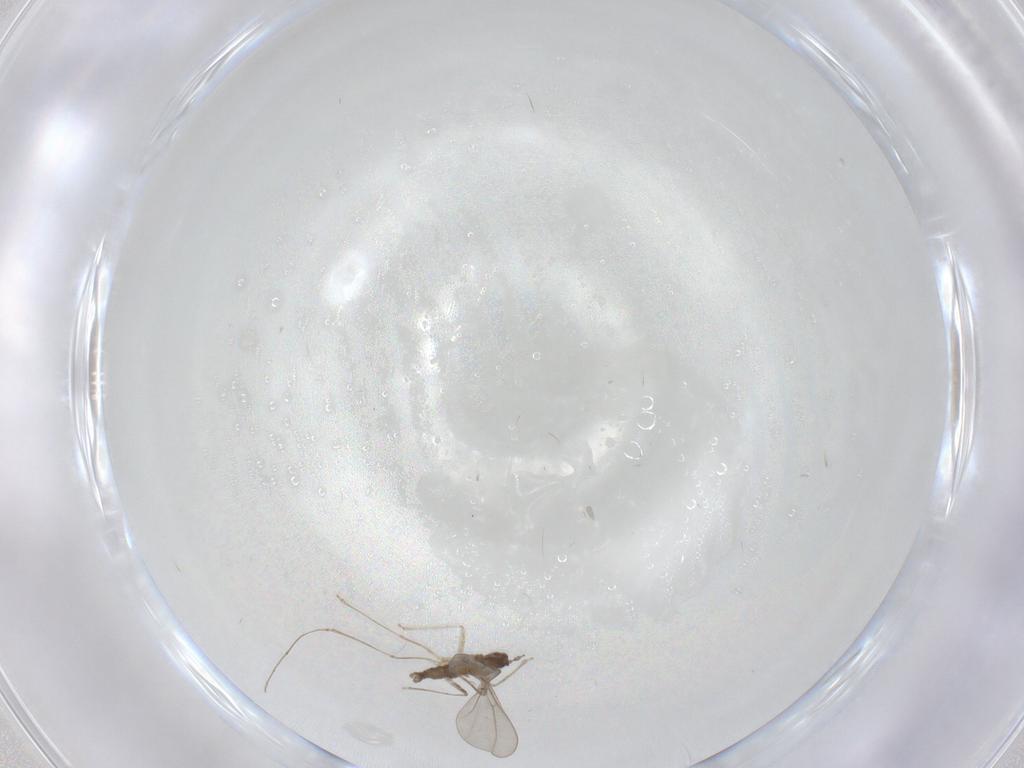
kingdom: Animalia
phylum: Arthropoda
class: Insecta
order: Diptera
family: Cecidomyiidae
